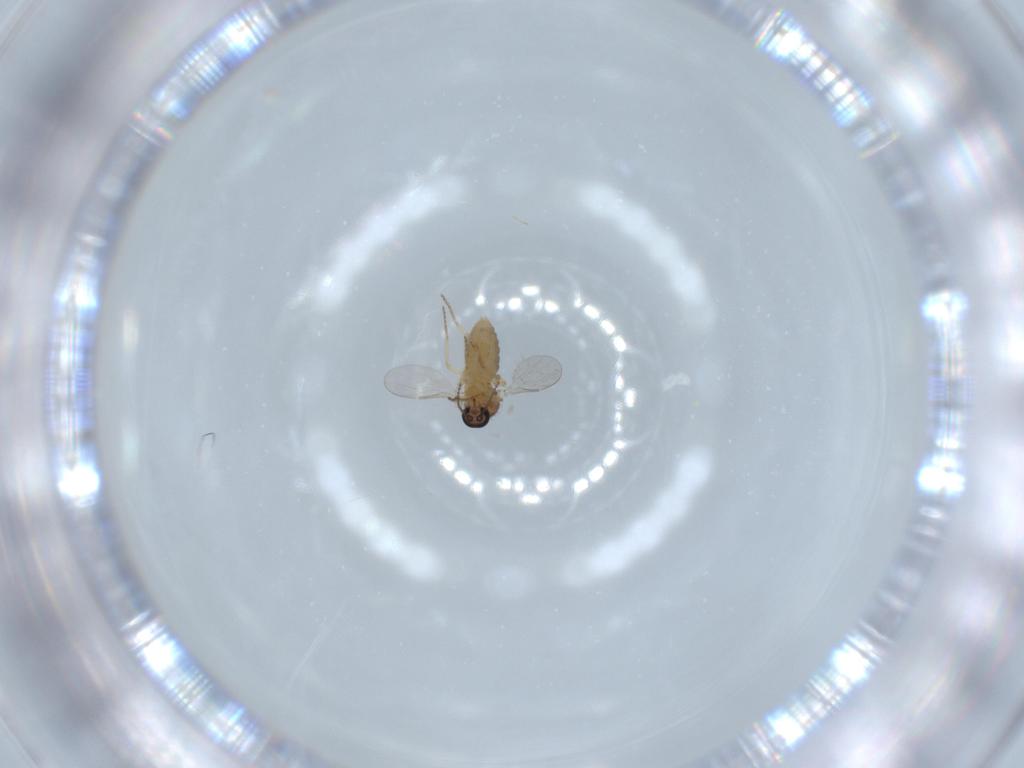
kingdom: Animalia
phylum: Arthropoda
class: Insecta
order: Diptera
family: Ceratopogonidae
